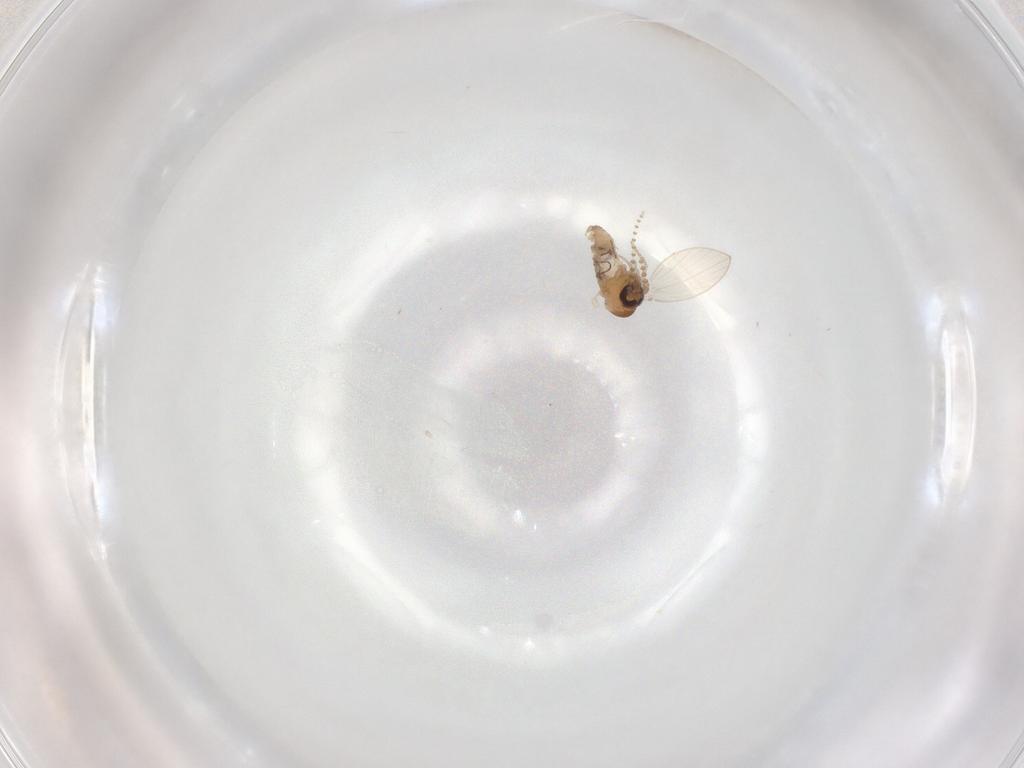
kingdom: Animalia
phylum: Arthropoda
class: Insecta
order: Diptera
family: Psychodidae
